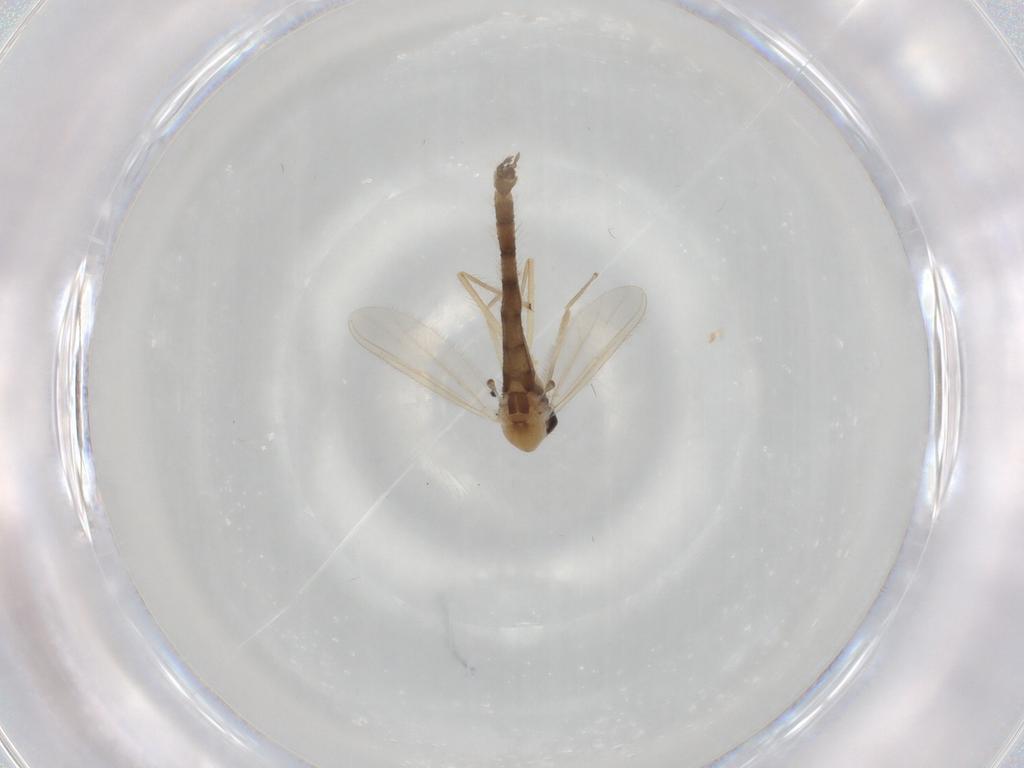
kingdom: Animalia
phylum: Arthropoda
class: Insecta
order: Diptera
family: Chironomidae
